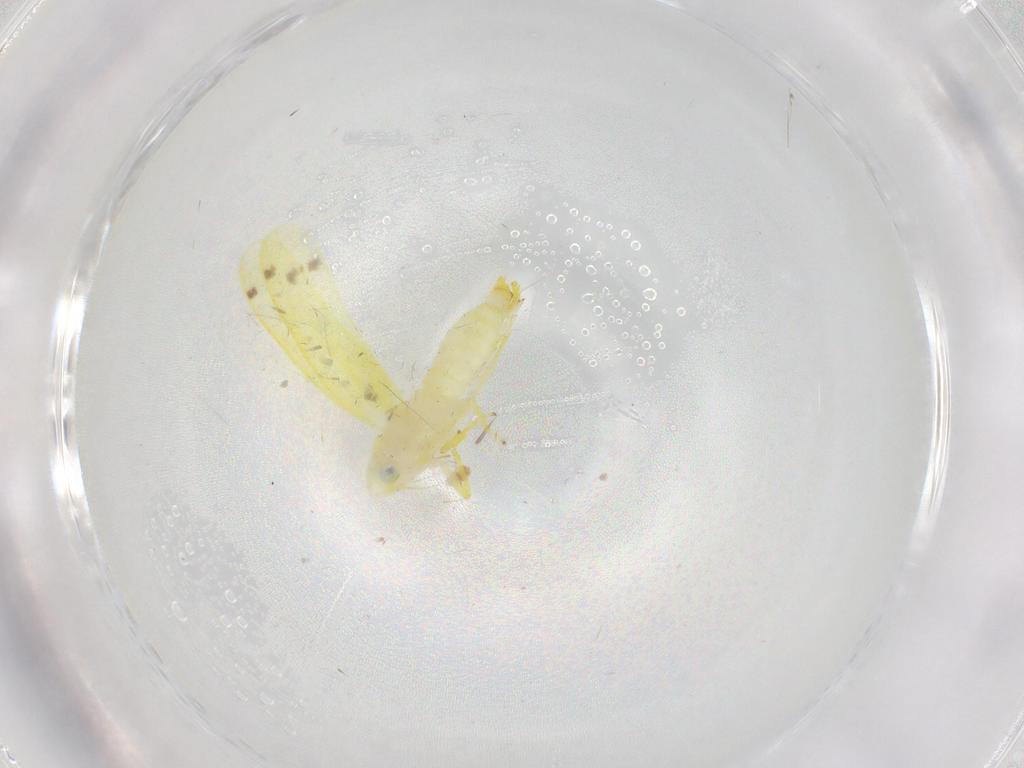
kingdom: Animalia
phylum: Arthropoda
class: Insecta
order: Hemiptera
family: Cicadellidae
